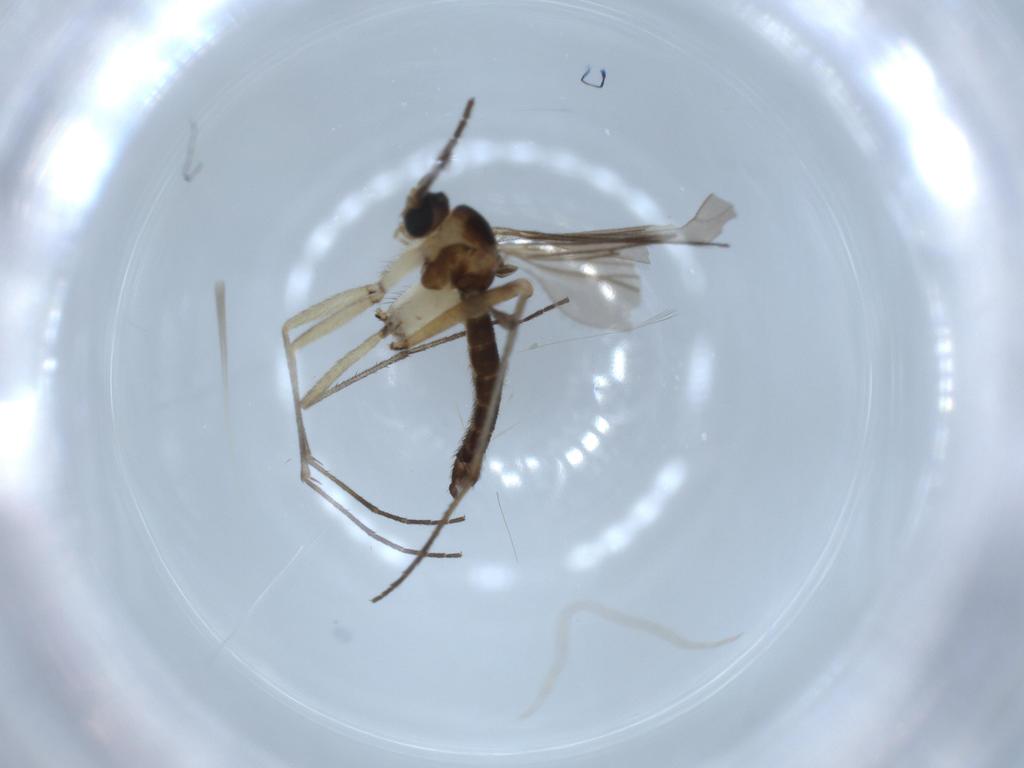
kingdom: Animalia
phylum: Arthropoda
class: Insecta
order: Diptera
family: Sciaridae
